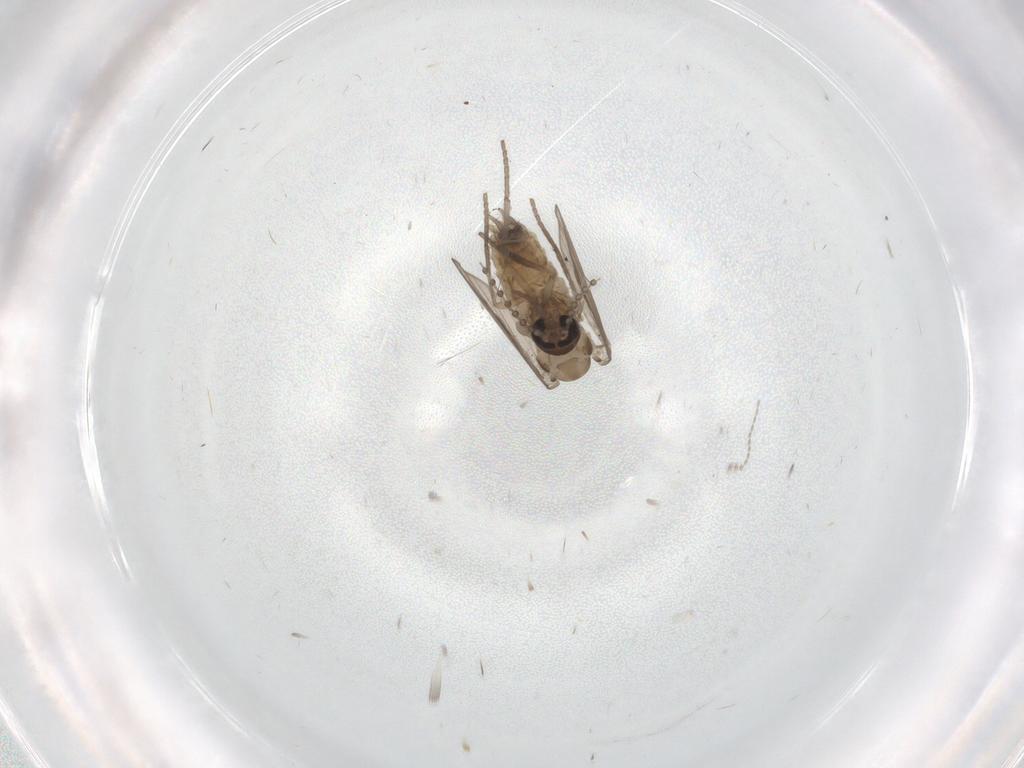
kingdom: Animalia
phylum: Arthropoda
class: Insecta
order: Diptera
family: Psychodidae
